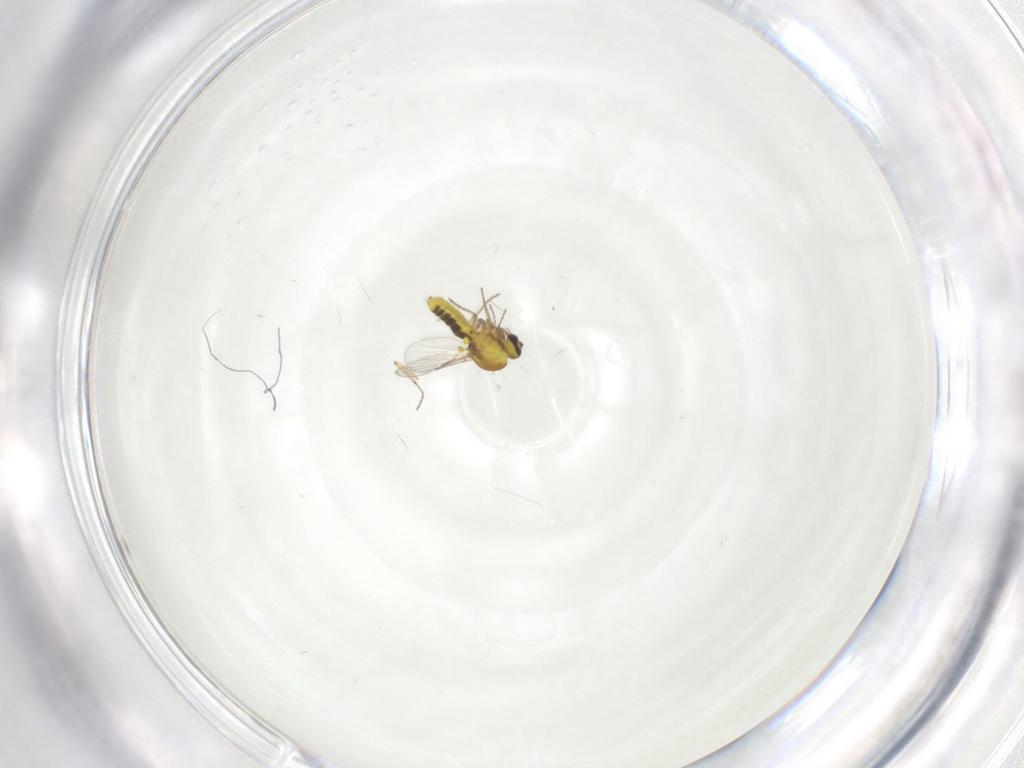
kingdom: Animalia
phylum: Arthropoda
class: Insecta
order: Diptera
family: Ceratopogonidae
